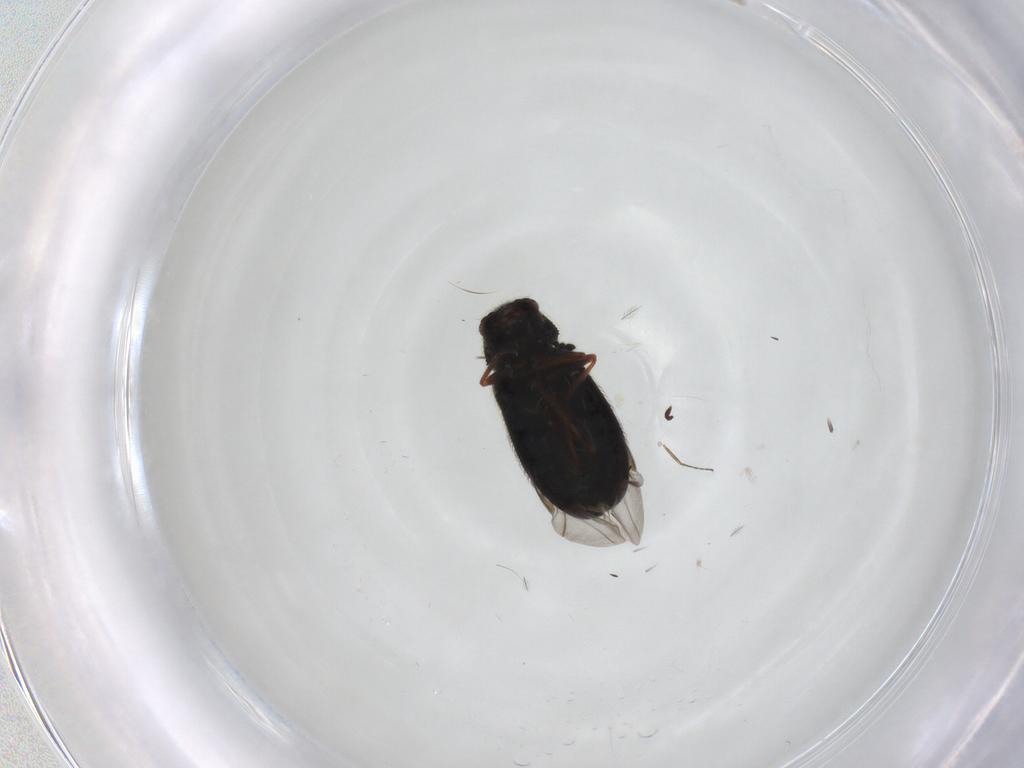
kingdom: Animalia
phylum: Arthropoda
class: Insecta
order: Coleoptera
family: Melyridae
